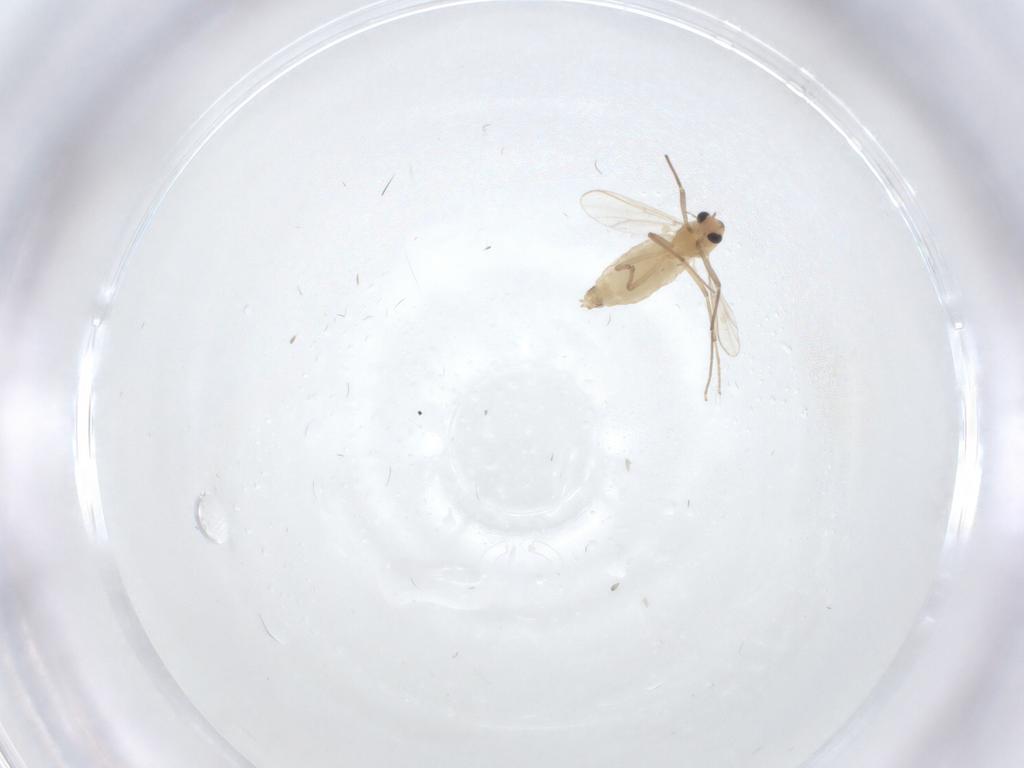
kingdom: Animalia
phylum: Arthropoda
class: Insecta
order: Diptera
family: Chironomidae
